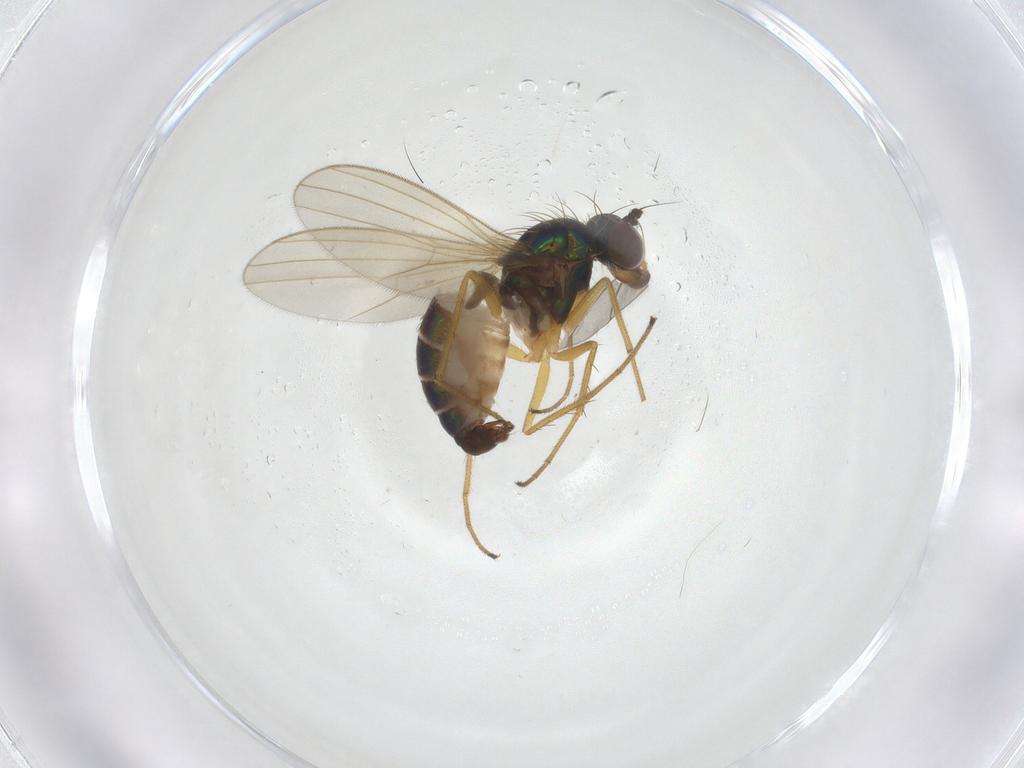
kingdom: Animalia
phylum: Arthropoda
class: Insecta
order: Diptera
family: Dolichopodidae
